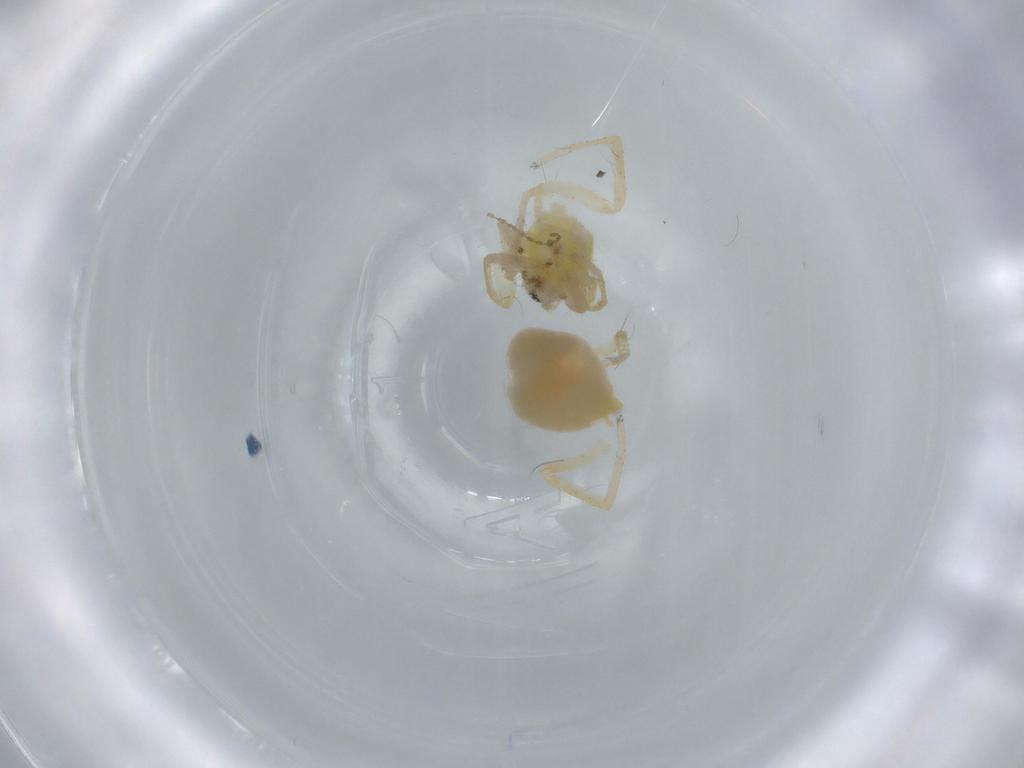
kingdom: Animalia
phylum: Arthropoda
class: Arachnida
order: Araneae
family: Anyphaenidae
